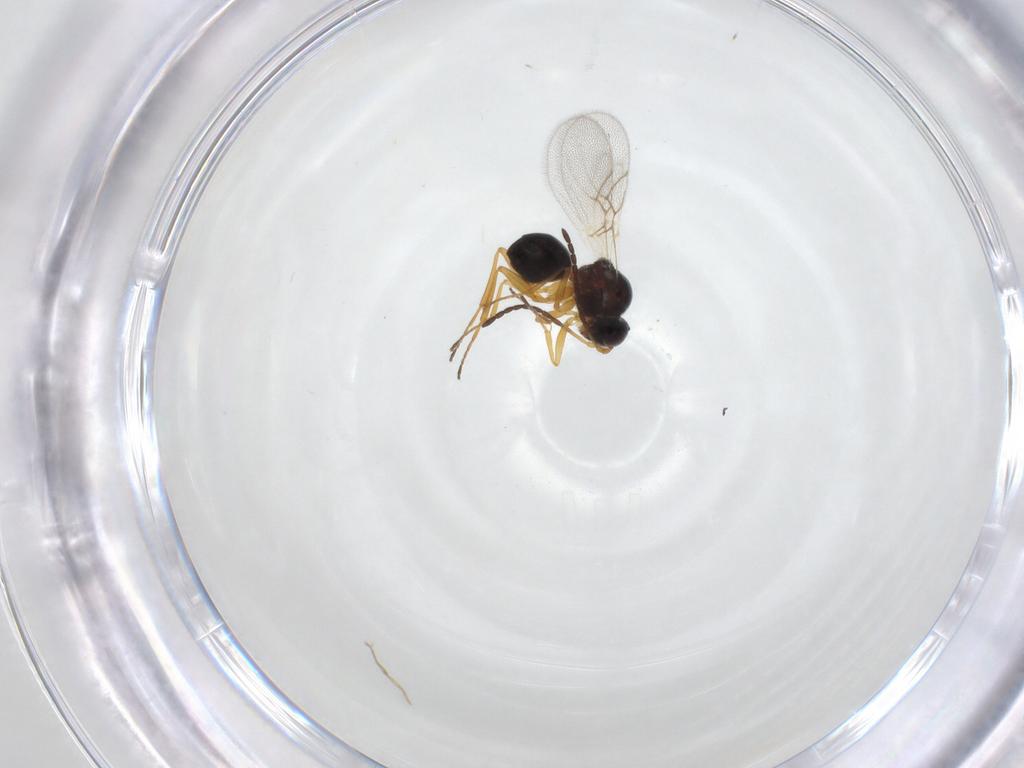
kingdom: Animalia
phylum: Arthropoda
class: Insecta
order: Hymenoptera
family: Figitidae
